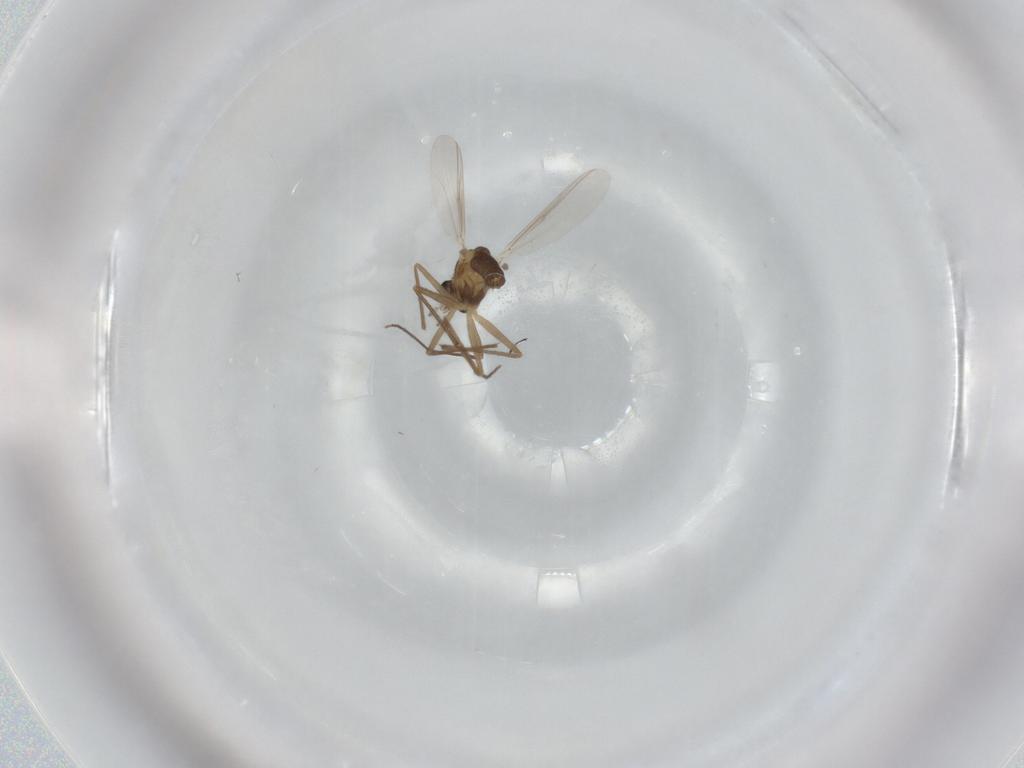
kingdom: Animalia
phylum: Arthropoda
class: Insecta
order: Diptera
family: Chironomidae
